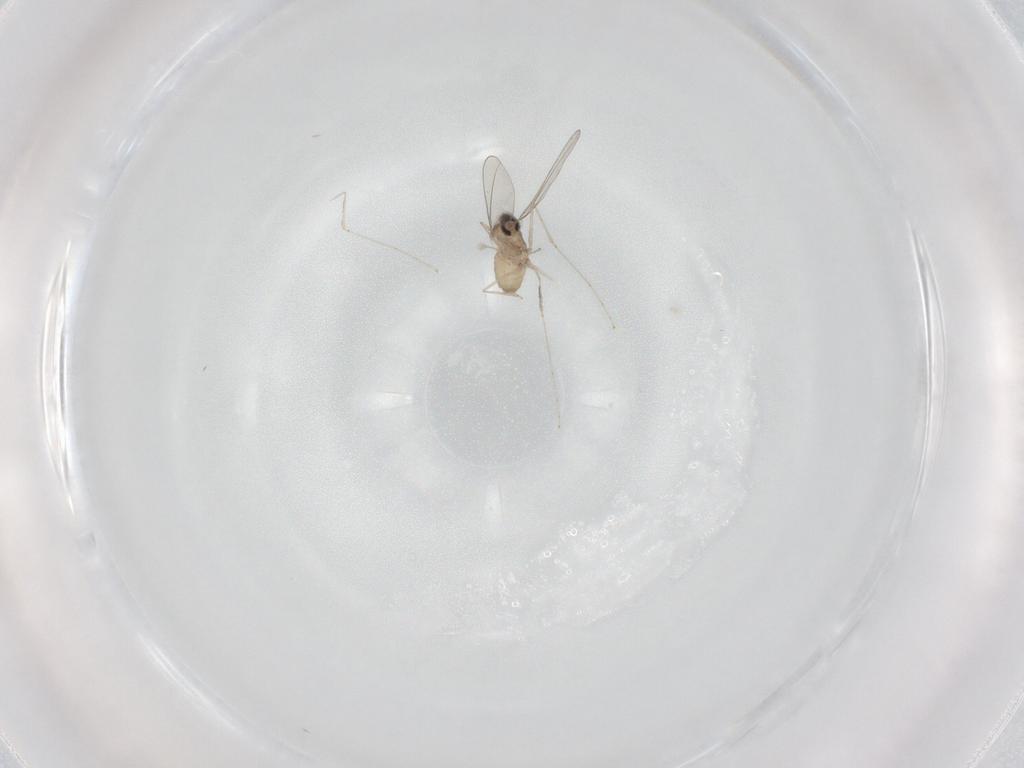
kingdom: Animalia
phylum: Arthropoda
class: Insecta
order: Diptera
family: Cecidomyiidae
